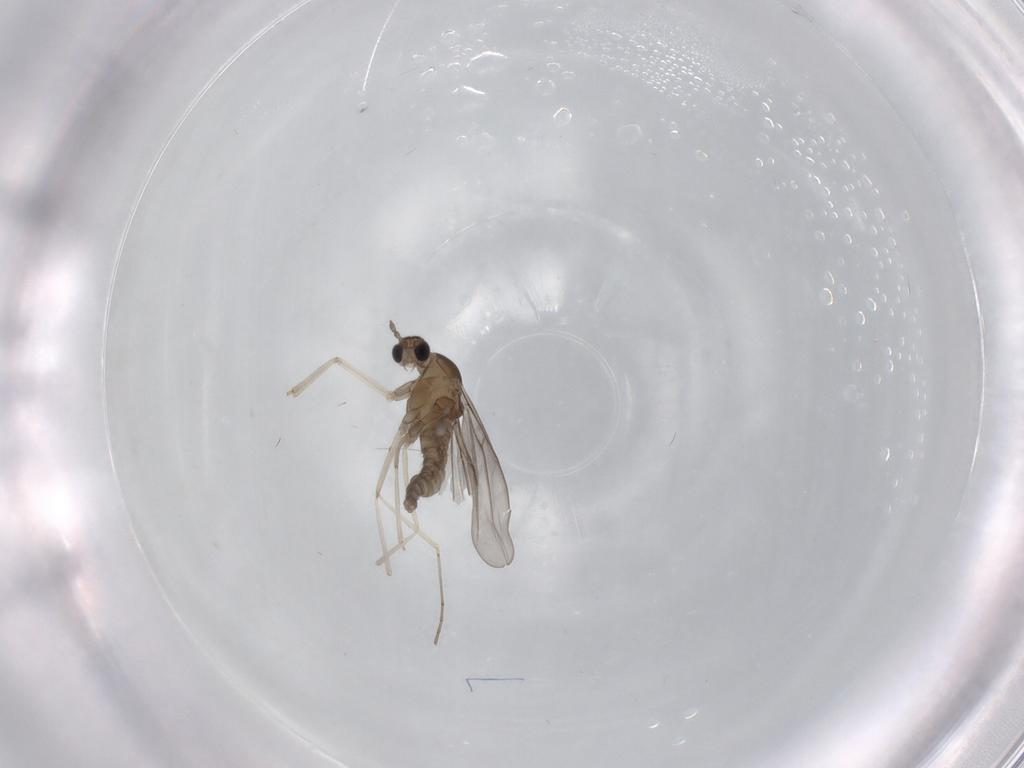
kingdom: Animalia
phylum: Arthropoda
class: Insecta
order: Diptera
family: Cecidomyiidae
